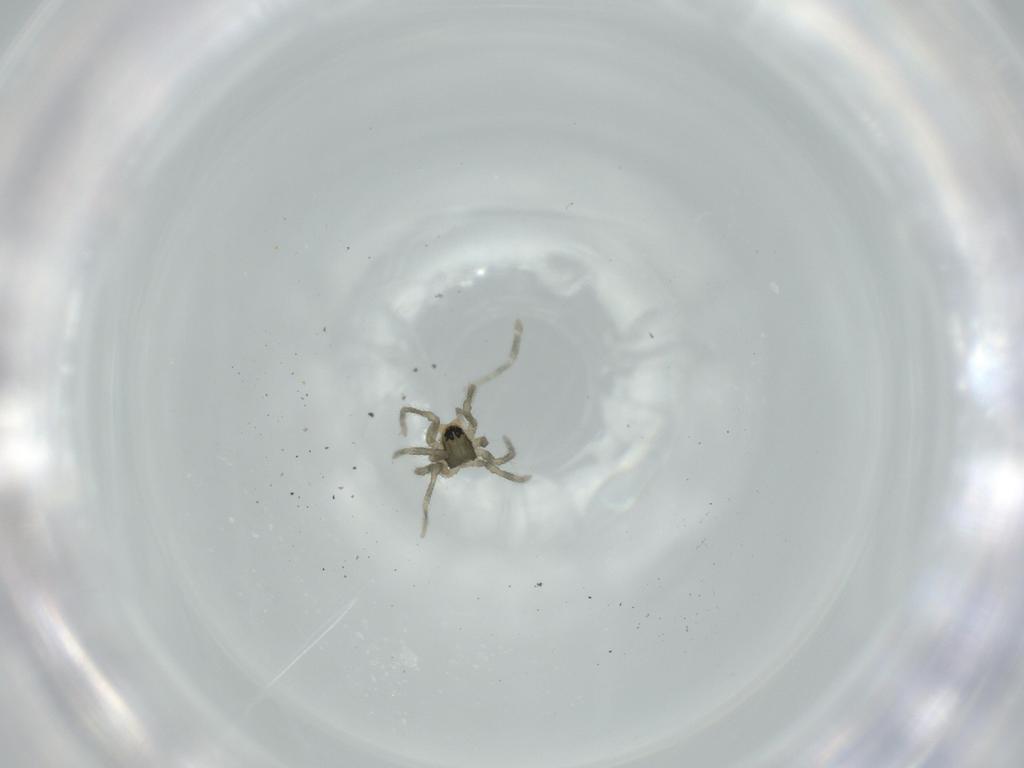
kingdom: Animalia
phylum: Arthropoda
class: Arachnida
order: Araneae
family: Linyphiidae
